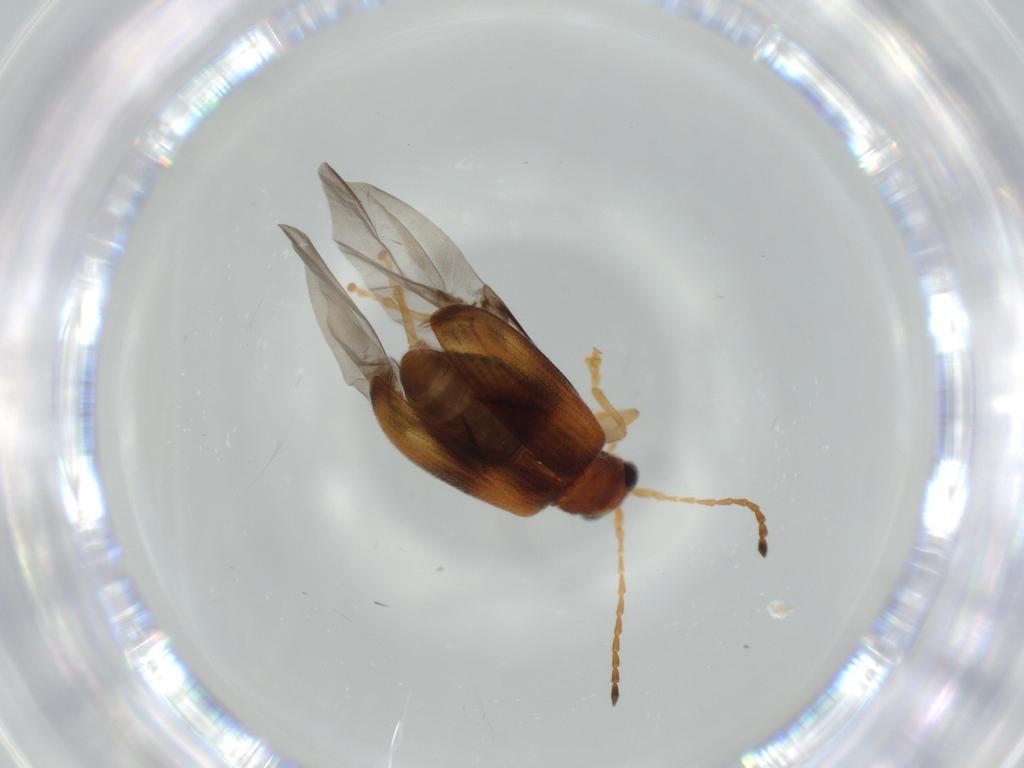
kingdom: Animalia
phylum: Arthropoda
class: Insecta
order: Coleoptera
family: Chrysomelidae
